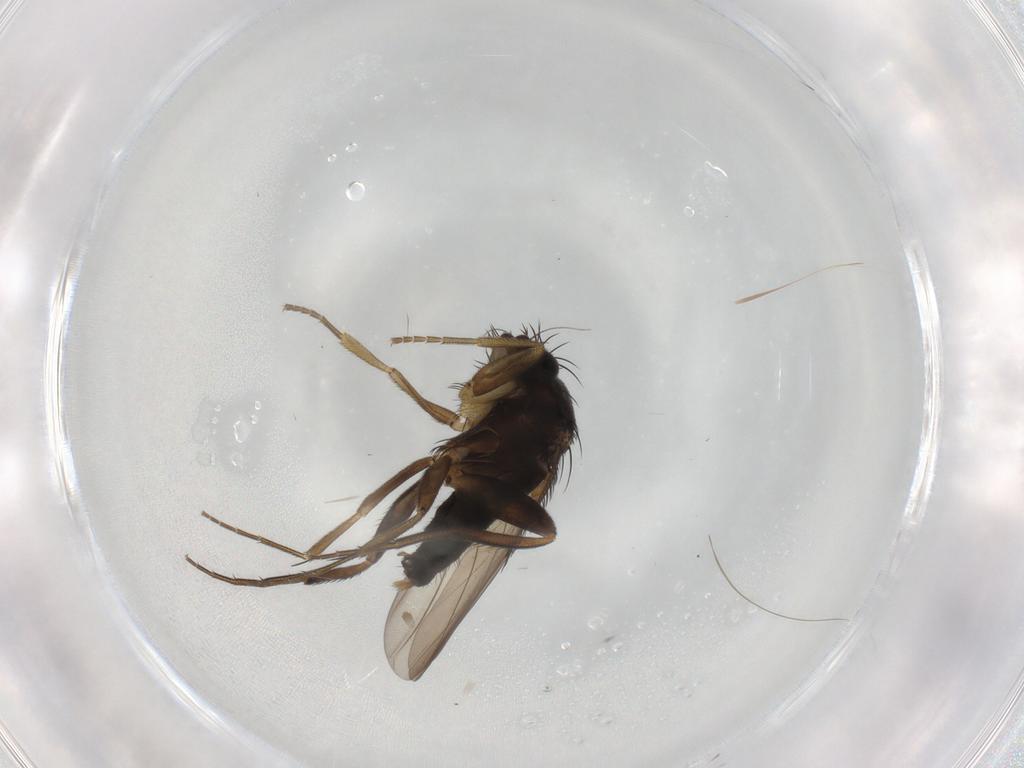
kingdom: Animalia
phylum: Arthropoda
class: Insecta
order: Diptera
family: Phoridae
